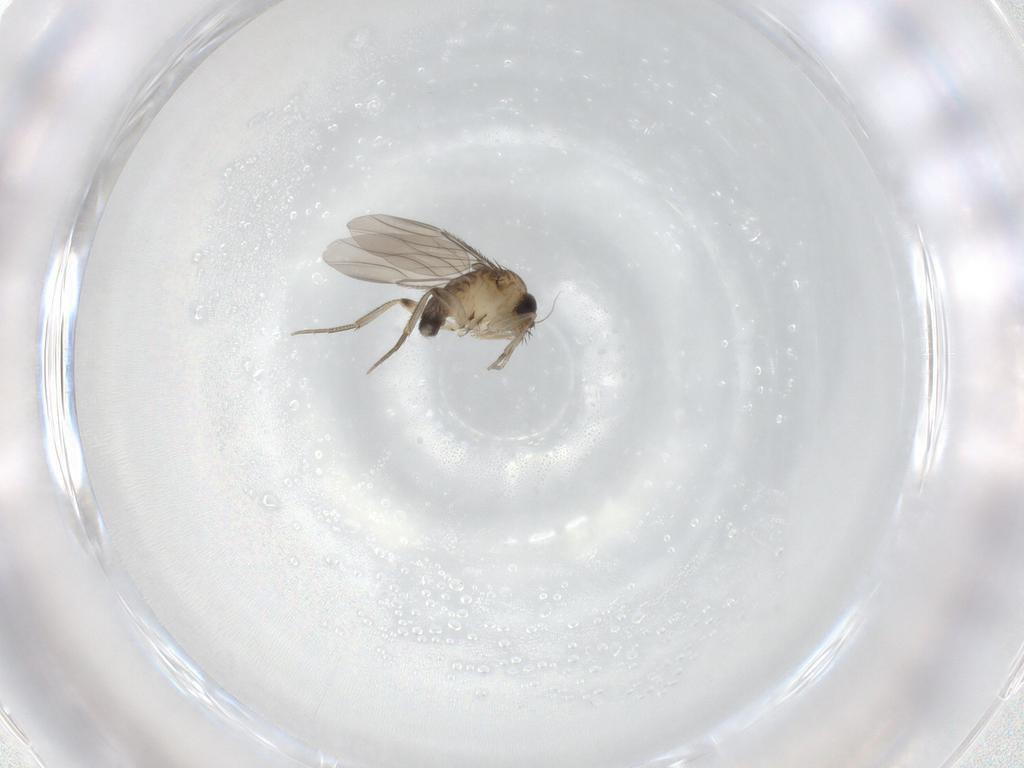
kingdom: Animalia
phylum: Arthropoda
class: Insecta
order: Diptera
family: Phoridae
